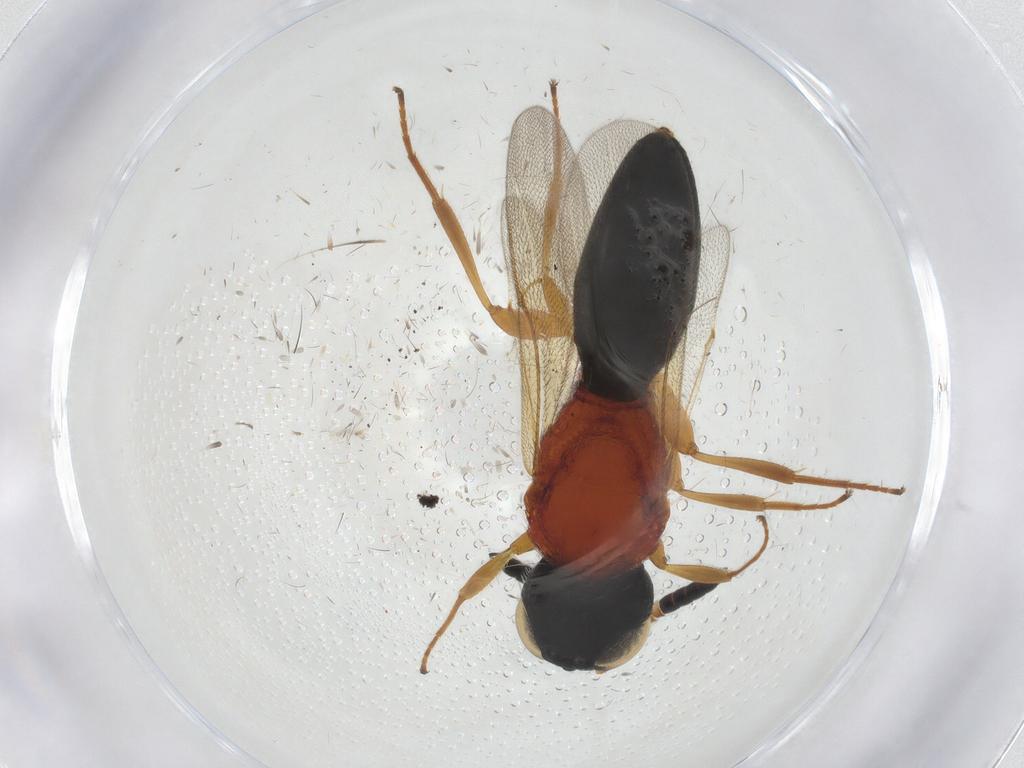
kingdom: Animalia
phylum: Arthropoda
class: Insecta
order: Hymenoptera
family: Scelionidae
